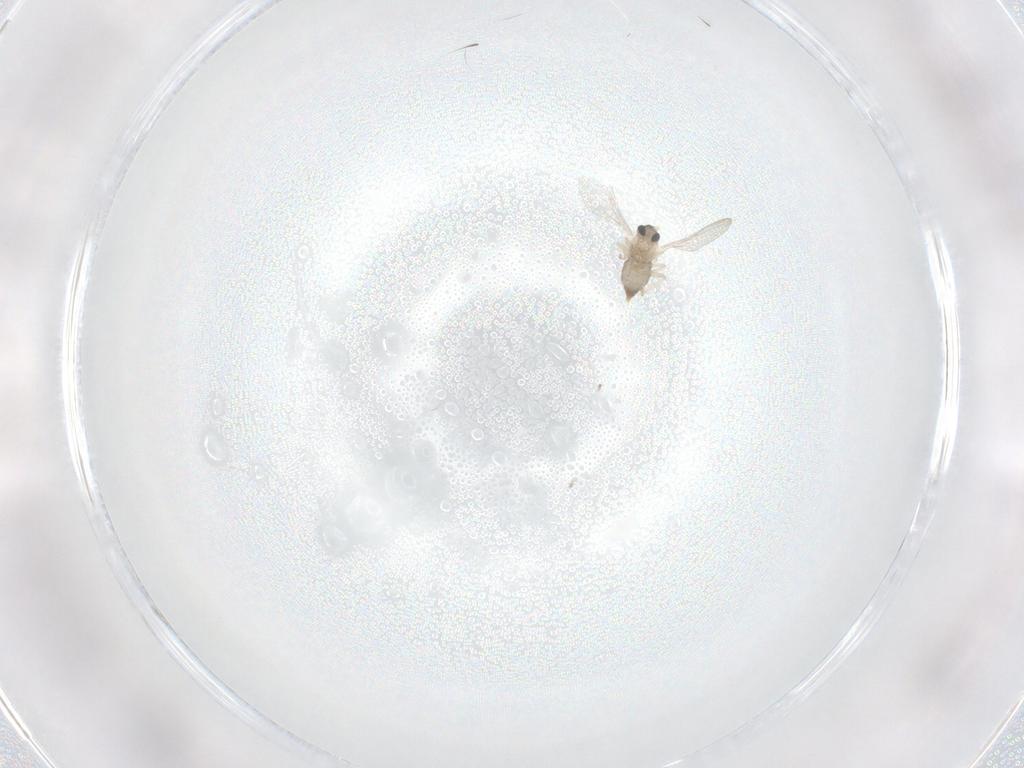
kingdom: Animalia
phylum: Arthropoda
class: Insecta
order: Diptera
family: Cecidomyiidae
